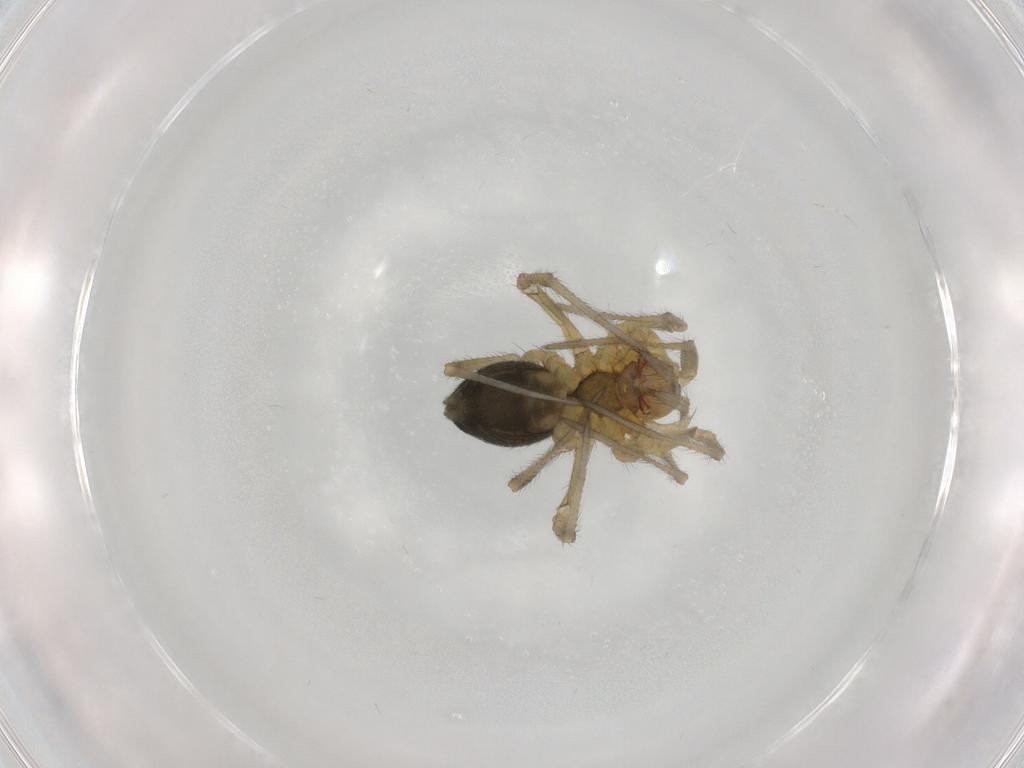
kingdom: Animalia
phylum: Arthropoda
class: Arachnida
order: Araneae
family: Linyphiidae
